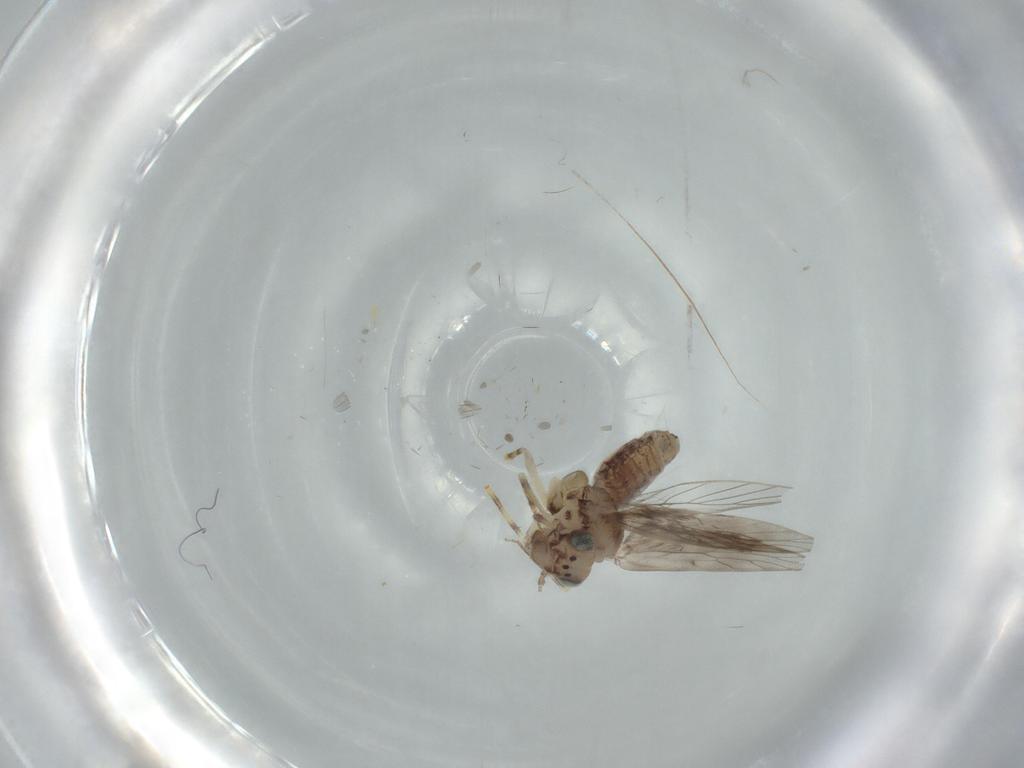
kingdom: Animalia
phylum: Arthropoda
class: Insecta
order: Psocodea
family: Lepidopsocidae
